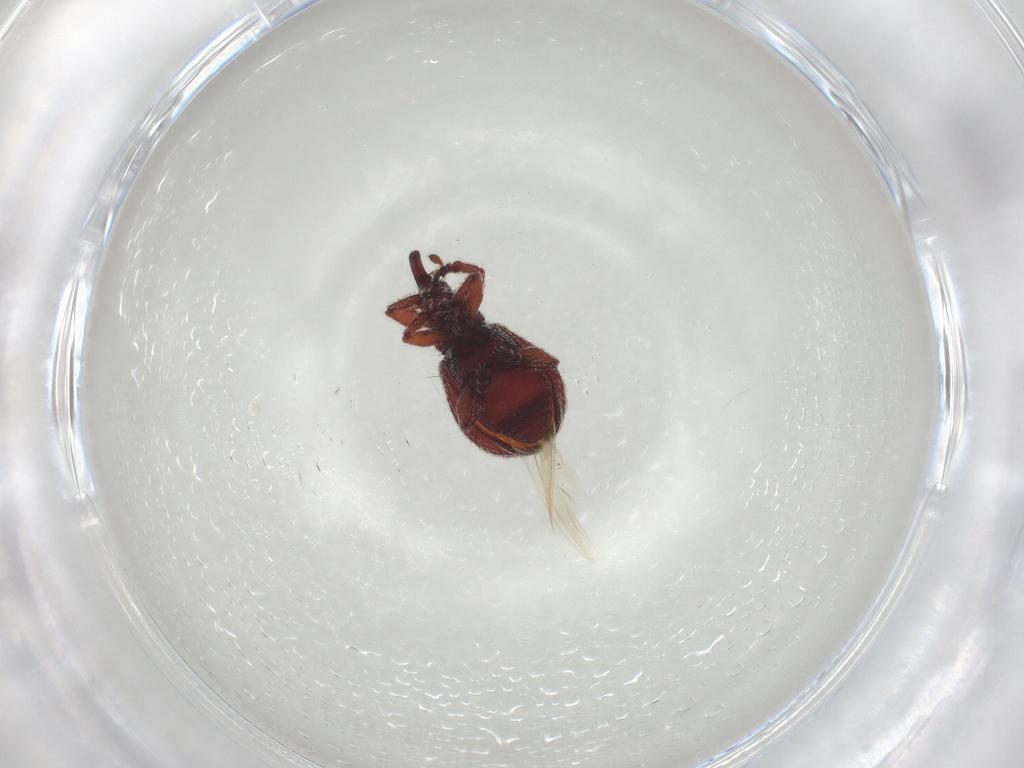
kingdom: Animalia
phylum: Arthropoda
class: Insecta
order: Coleoptera
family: Brentidae
